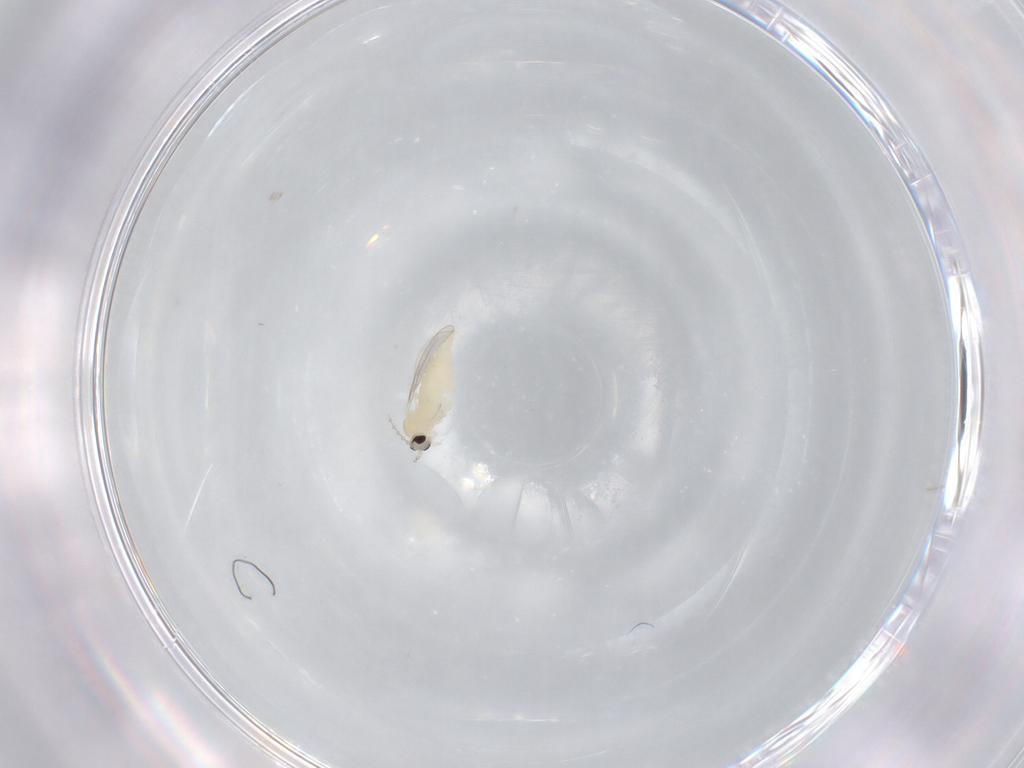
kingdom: Animalia
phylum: Arthropoda
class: Insecta
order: Diptera
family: Cecidomyiidae
